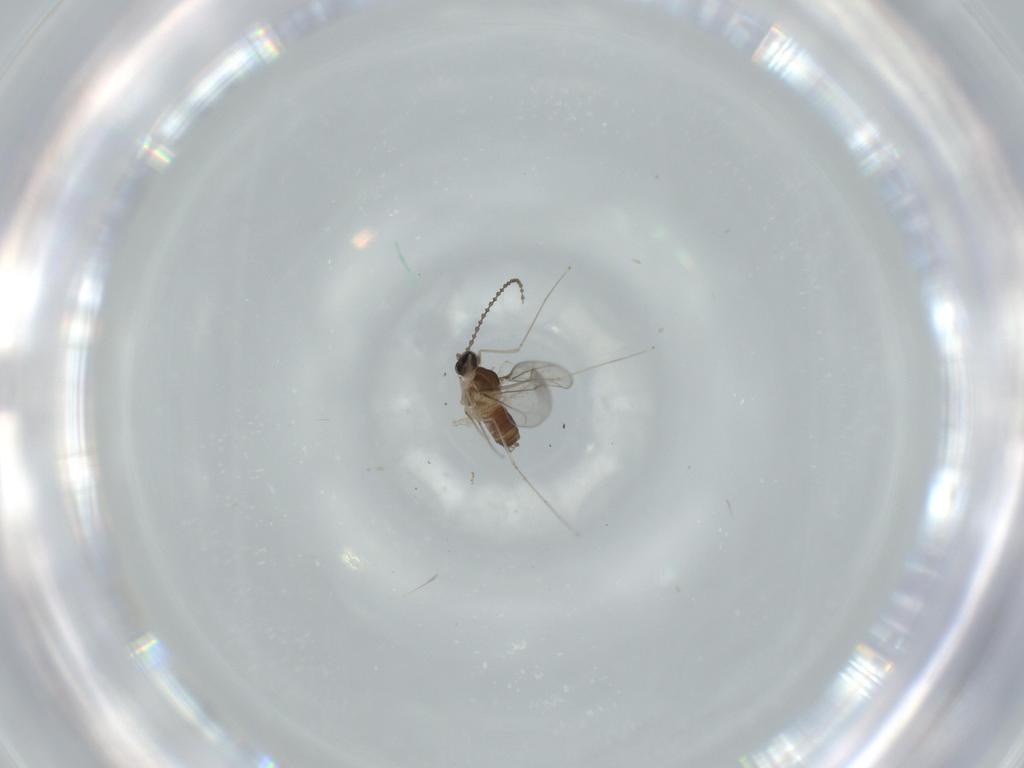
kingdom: Animalia
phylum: Arthropoda
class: Insecta
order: Diptera
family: Cecidomyiidae
